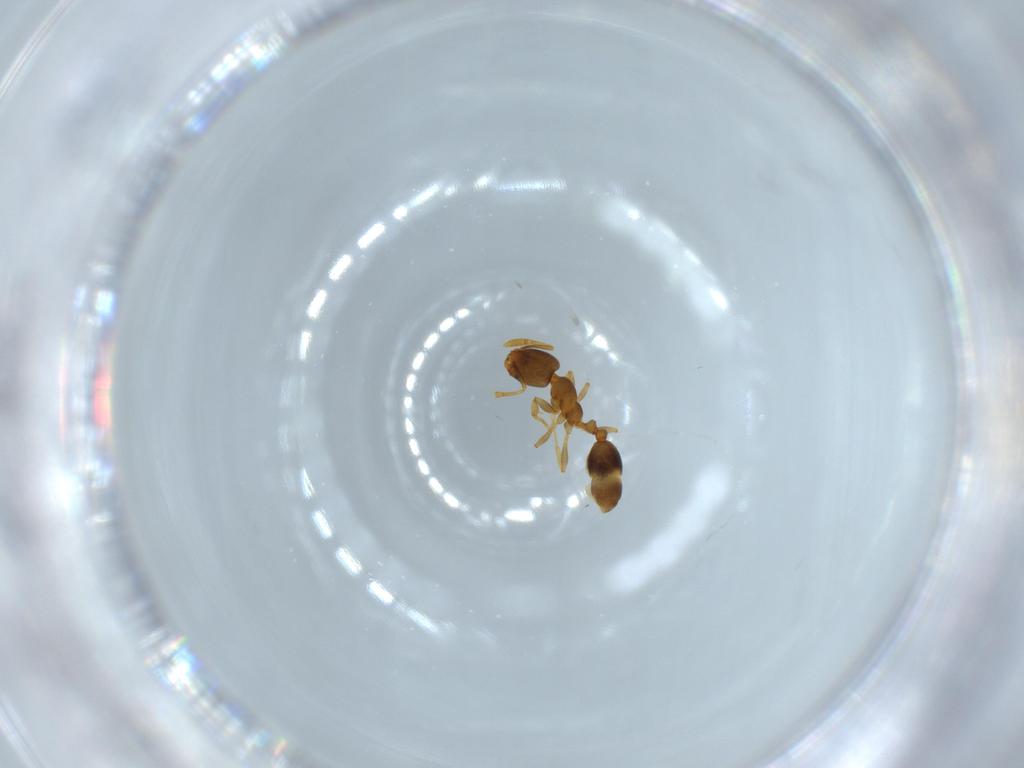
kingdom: Animalia
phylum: Arthropoda
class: Insecta
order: Hymenoptera
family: Formicidae
